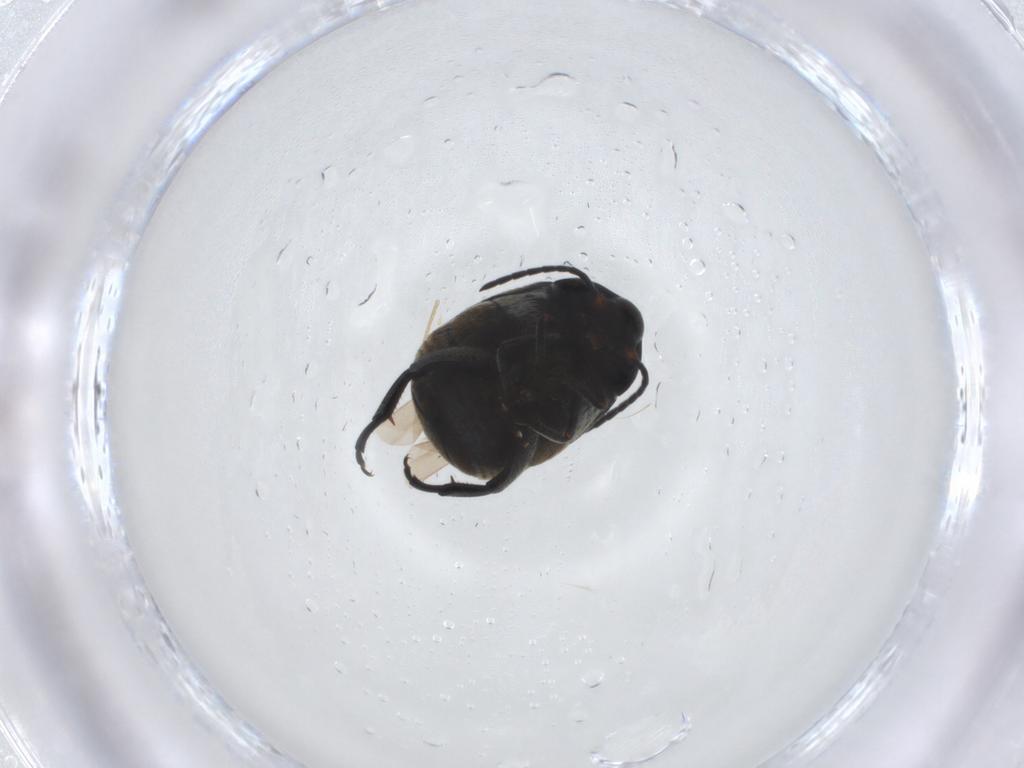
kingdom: Animalia
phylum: Arthropoda
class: Insecta
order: Coleoptera
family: Chrysomelidae
